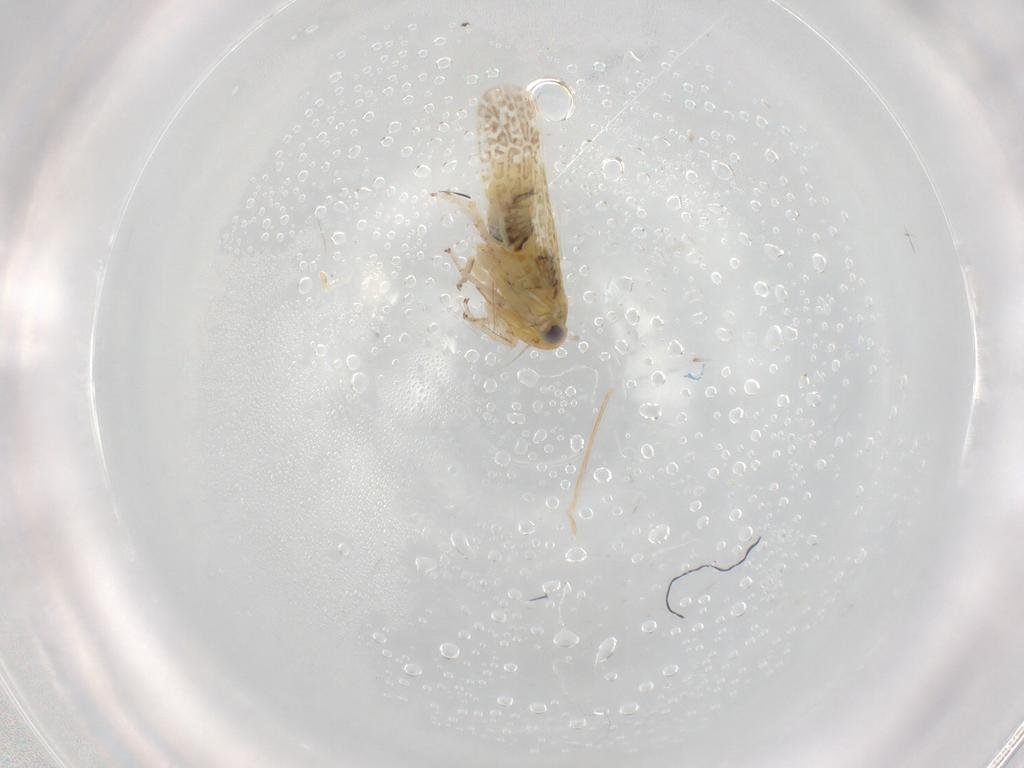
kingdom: Animalia
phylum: Arthropoda
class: Insecta
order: Hemiptera
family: Cicadellidae
